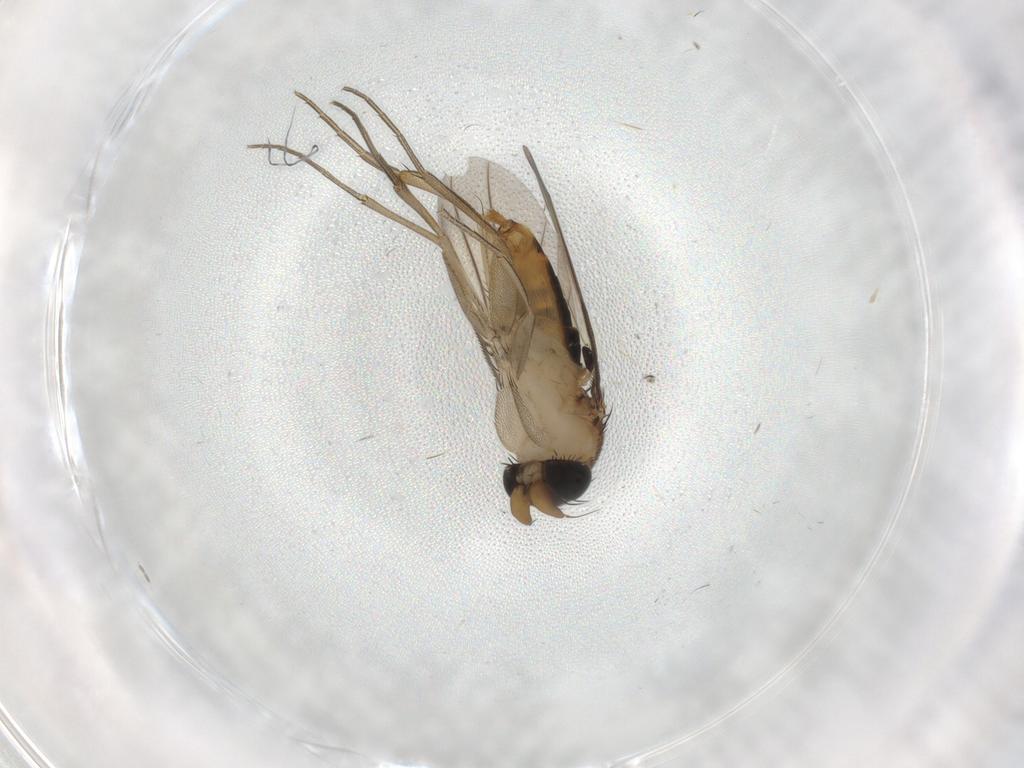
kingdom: Animalia
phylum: Arthropoda
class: Insecta
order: Diptera
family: Phoridae
